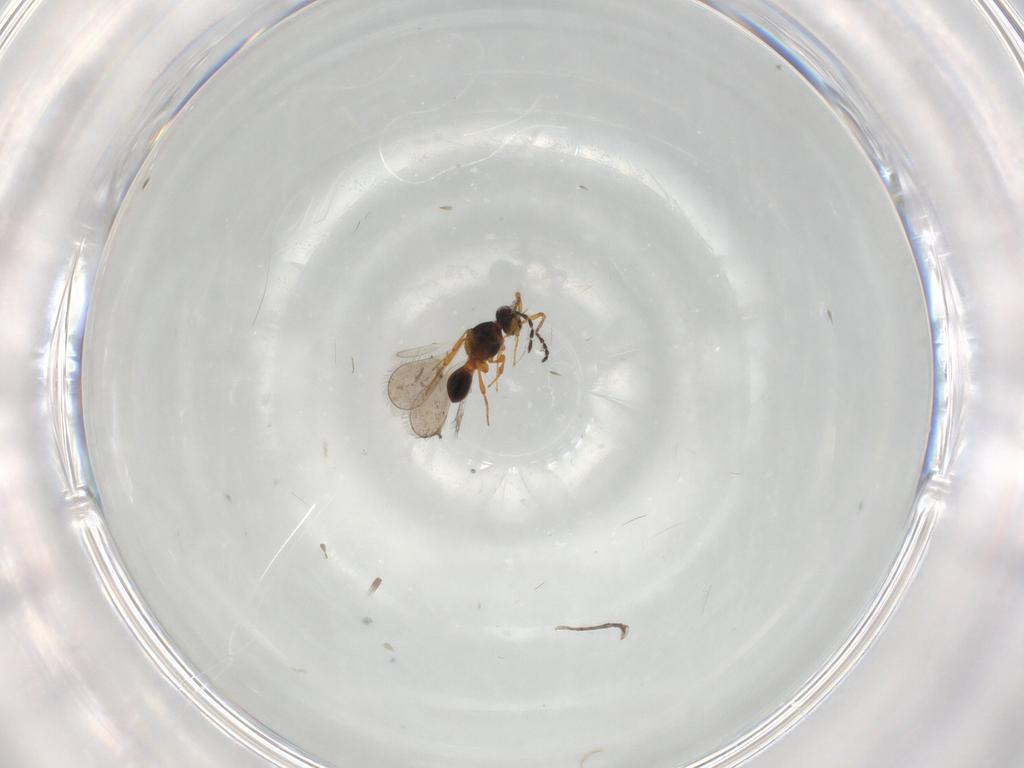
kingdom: Animalia
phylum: Arthropoda
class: Insecta
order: Hymenoptera
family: Platygastridae
